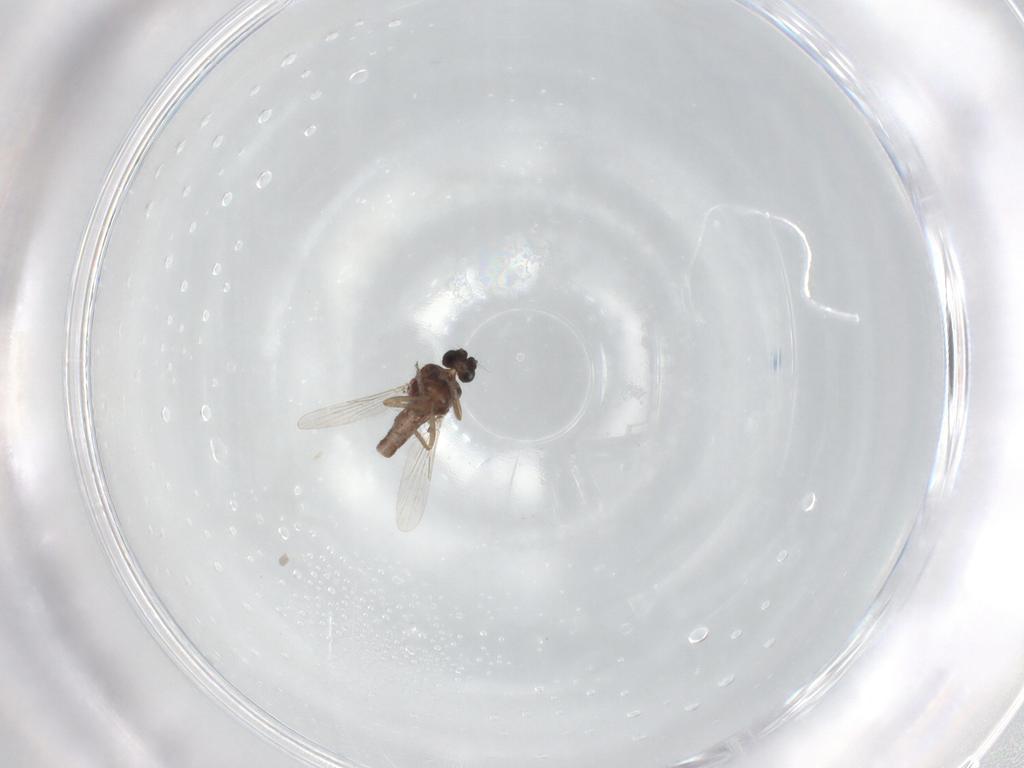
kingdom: Animalia
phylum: Arthropoda
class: Insecta
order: Diptera
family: Ceratopogonidae
